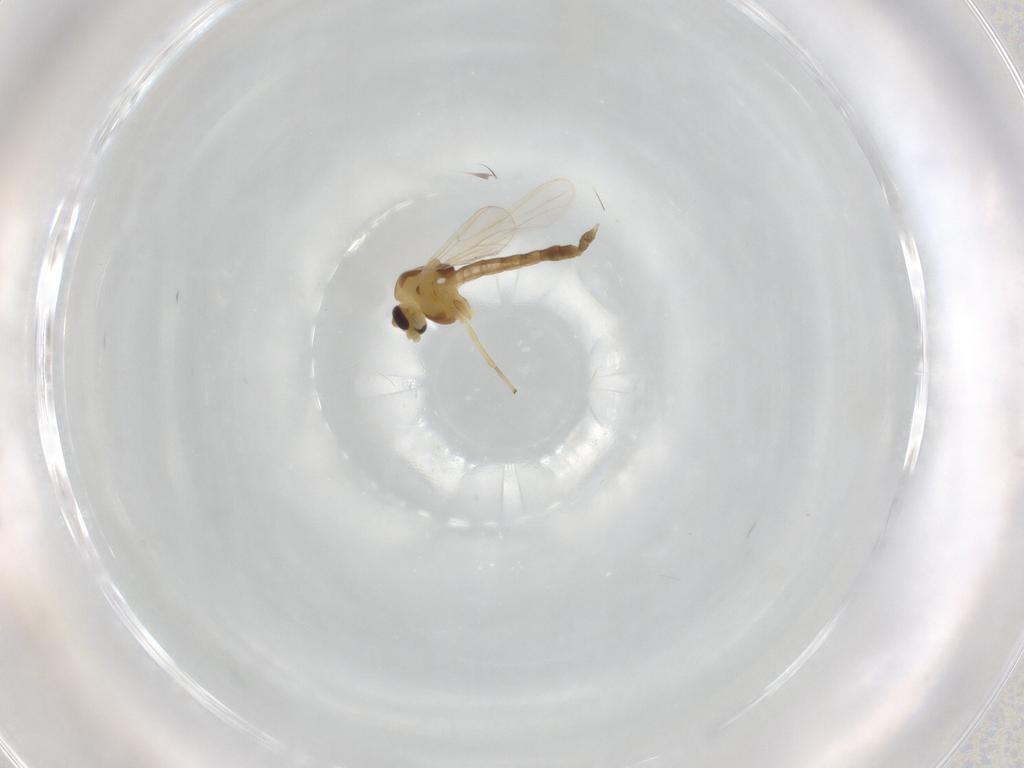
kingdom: Animalia
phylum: Arthropoda
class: Insecta
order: Diptera
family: Chironomidae
